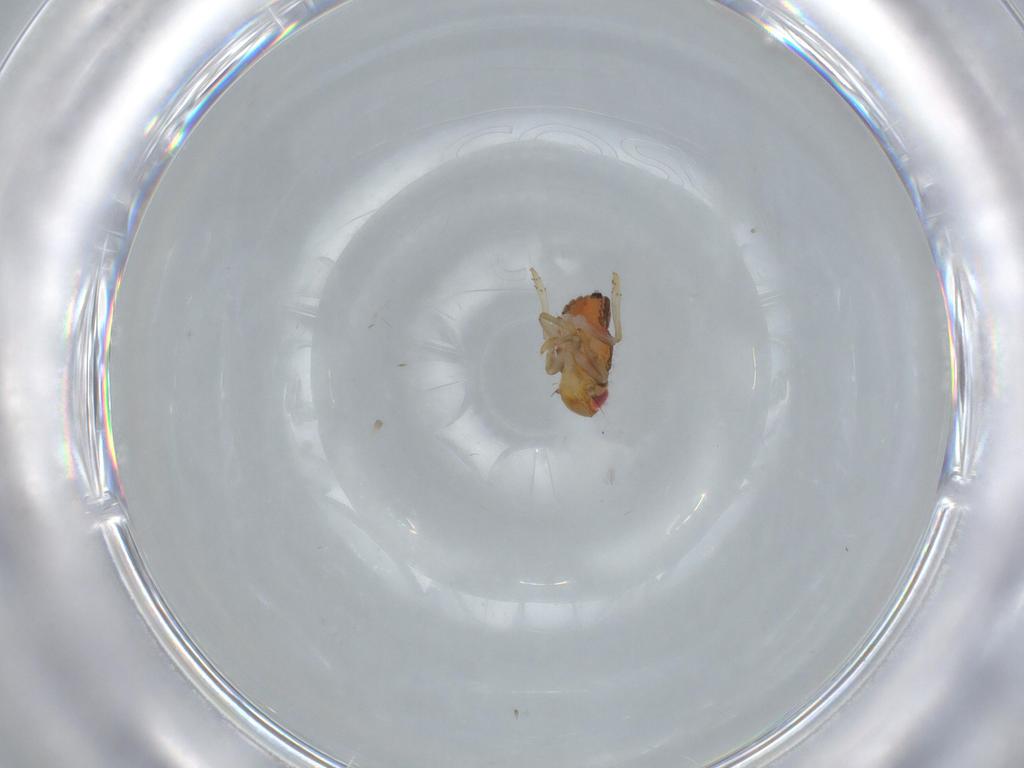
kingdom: Animalia
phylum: Arthropoda
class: Insecta
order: Hemiptera
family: Issidae
